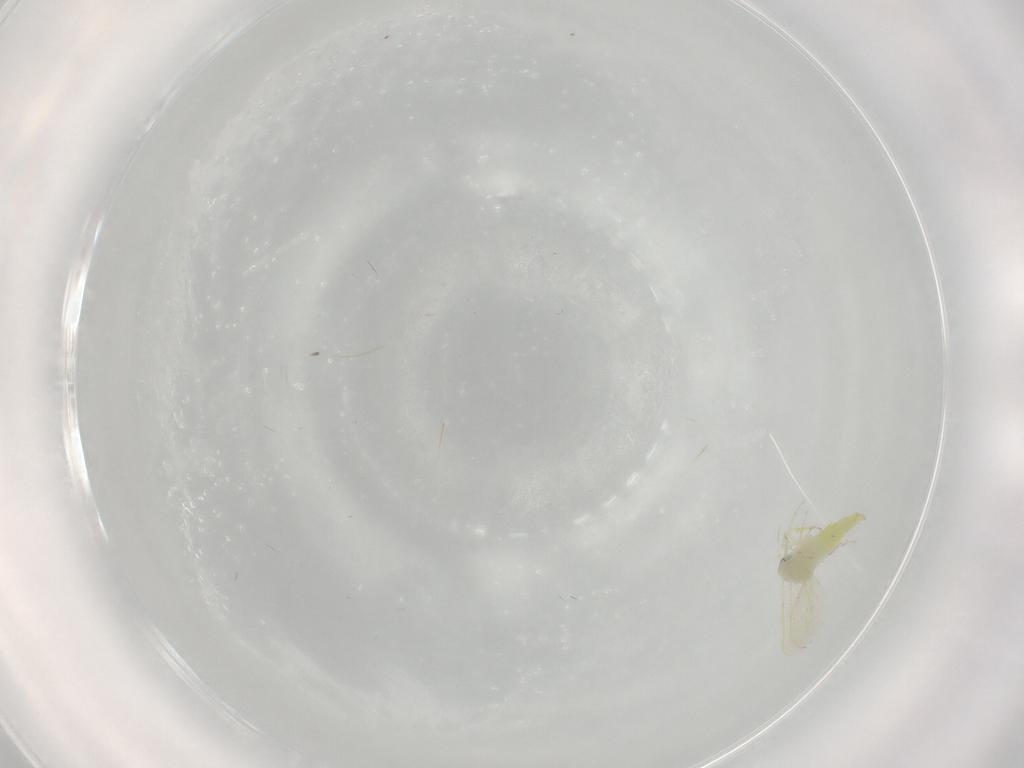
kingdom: Animalia
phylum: Arthropoda
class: Insecta
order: Hemiptera
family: Aleyrodidae
